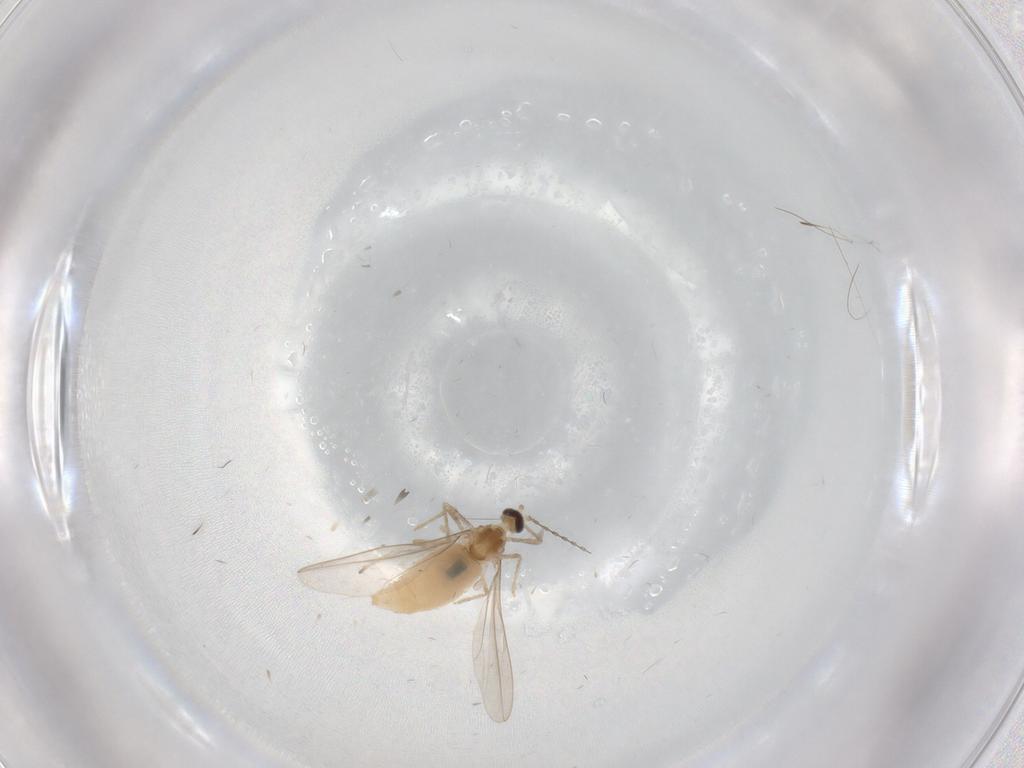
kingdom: Animalia
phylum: Arthropoda
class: Insecta
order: Diptera
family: Cecidomyiidae
